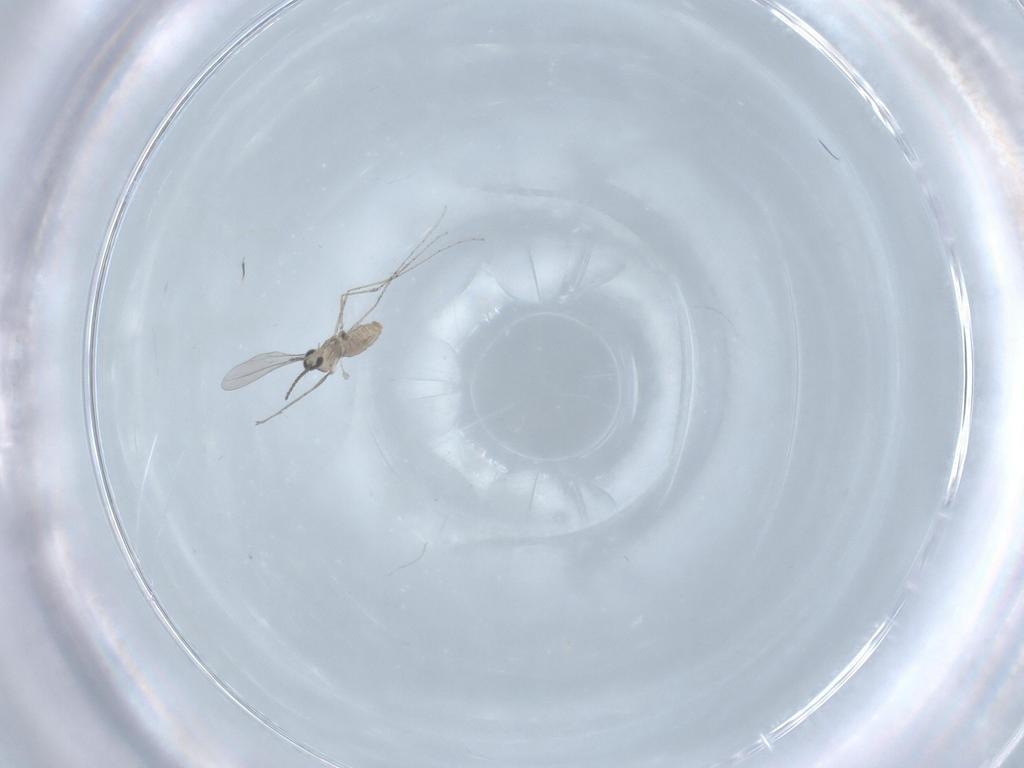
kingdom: Animalia
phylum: Arthropoda
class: Insecta
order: Diptera
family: Cecidomyiidae
